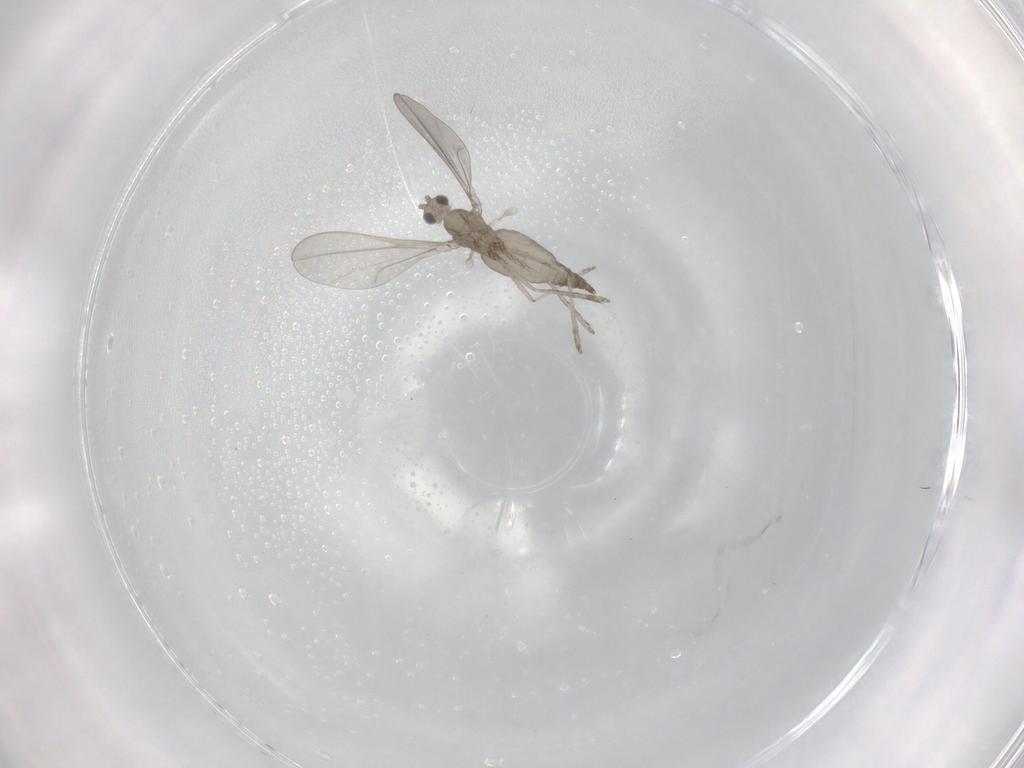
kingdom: Animalia
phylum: Arthropoda
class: Insecta
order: Diptera
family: Cecidomyiidae
